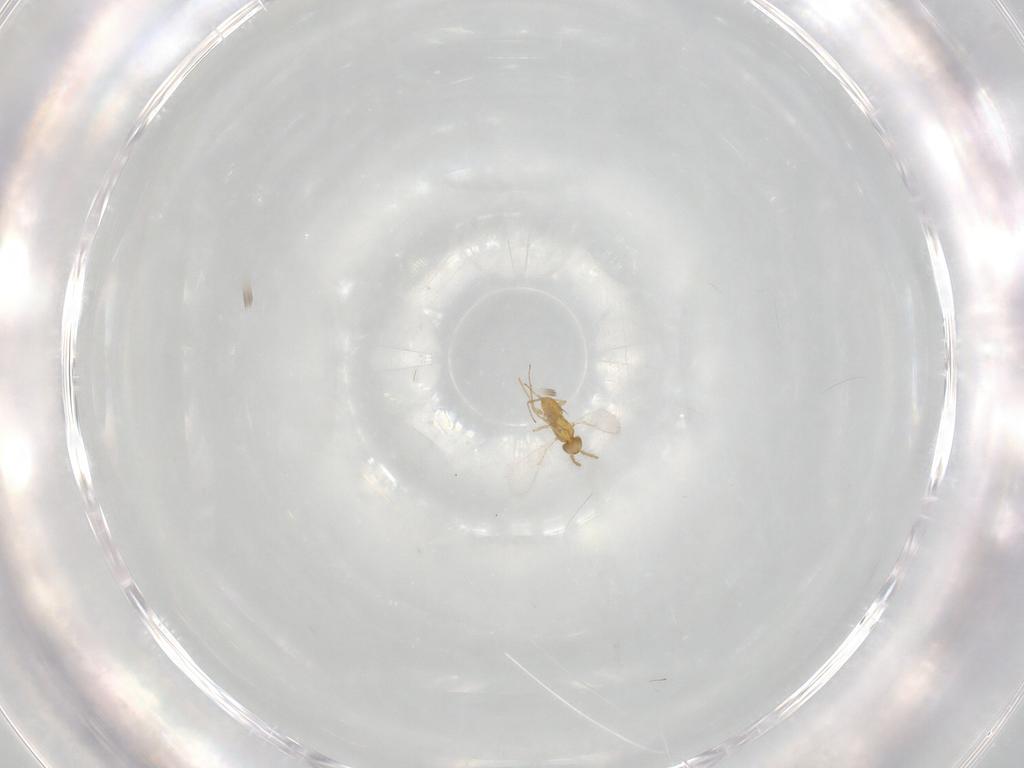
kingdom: Animalia
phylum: Arthropoda
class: Insecta
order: Hymenoptera
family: Aphelinidae
